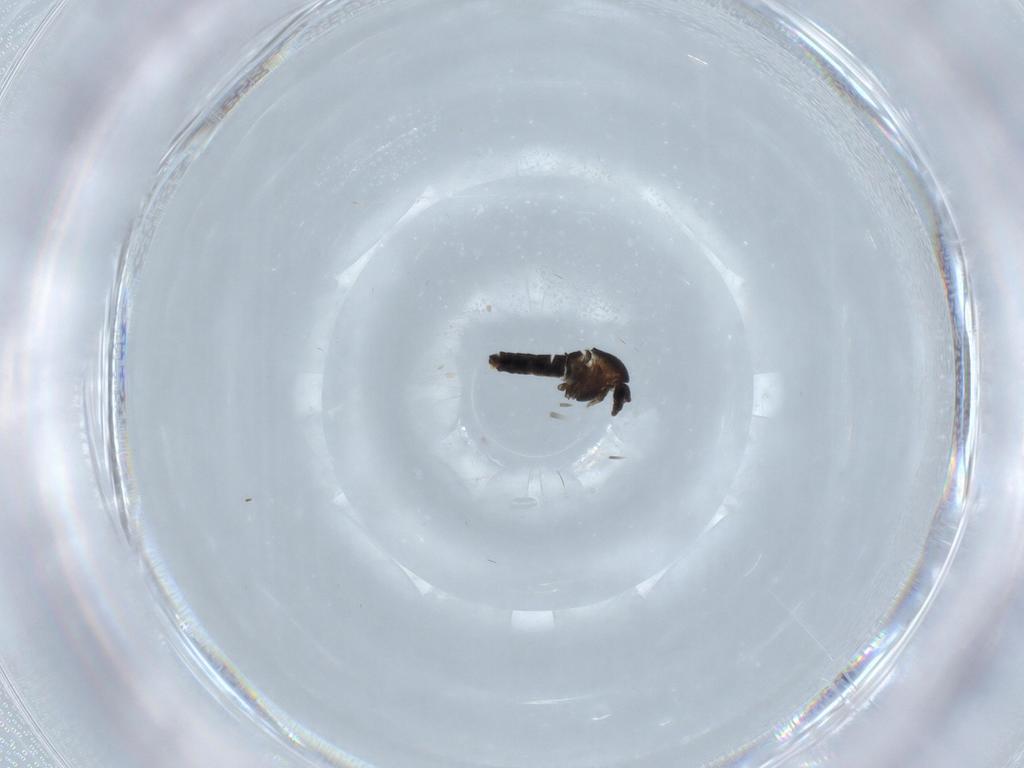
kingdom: Animalia
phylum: Arthropoda
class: Insecta
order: Diptera
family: Cecidomyiidae
